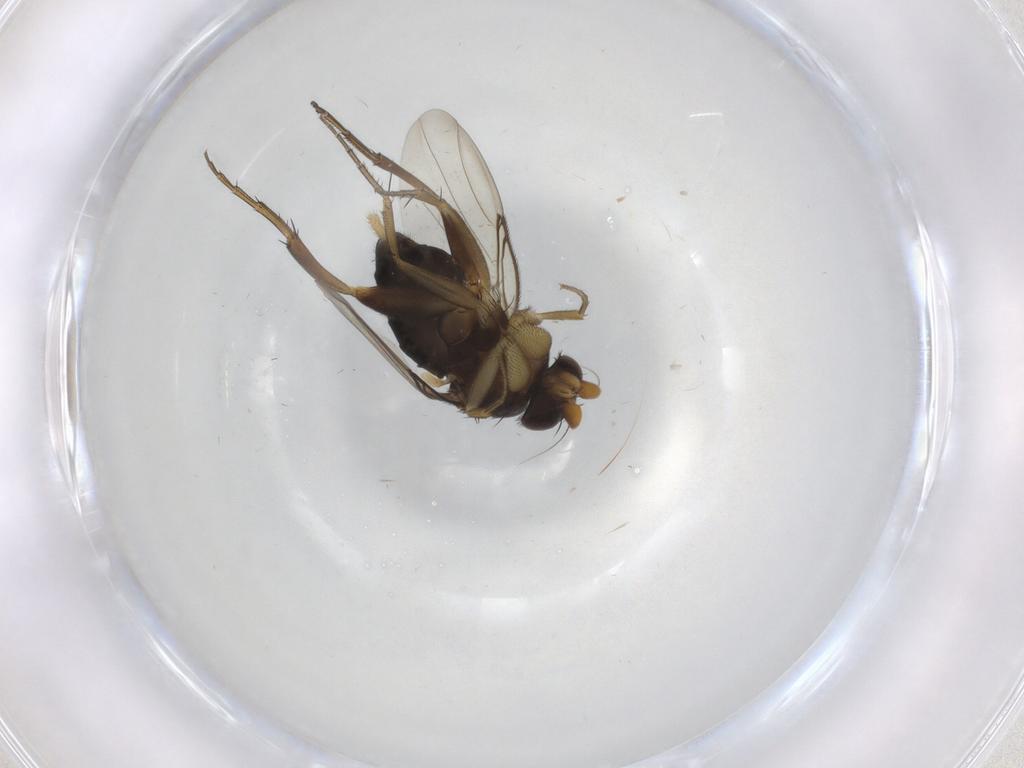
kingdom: Animalia
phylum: Arthropoda
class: Insecta
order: Diptera
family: Phoridae
